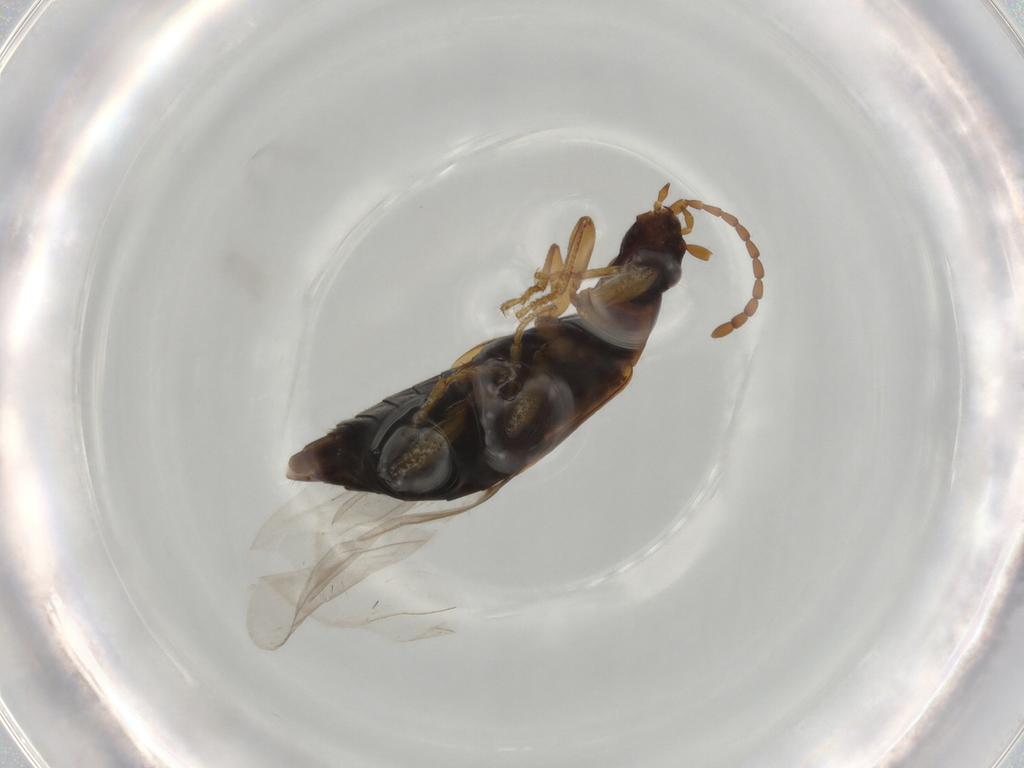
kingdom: Animalia
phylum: Arthropoda
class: Insecta
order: Coleoptera
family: Staphylinidae
